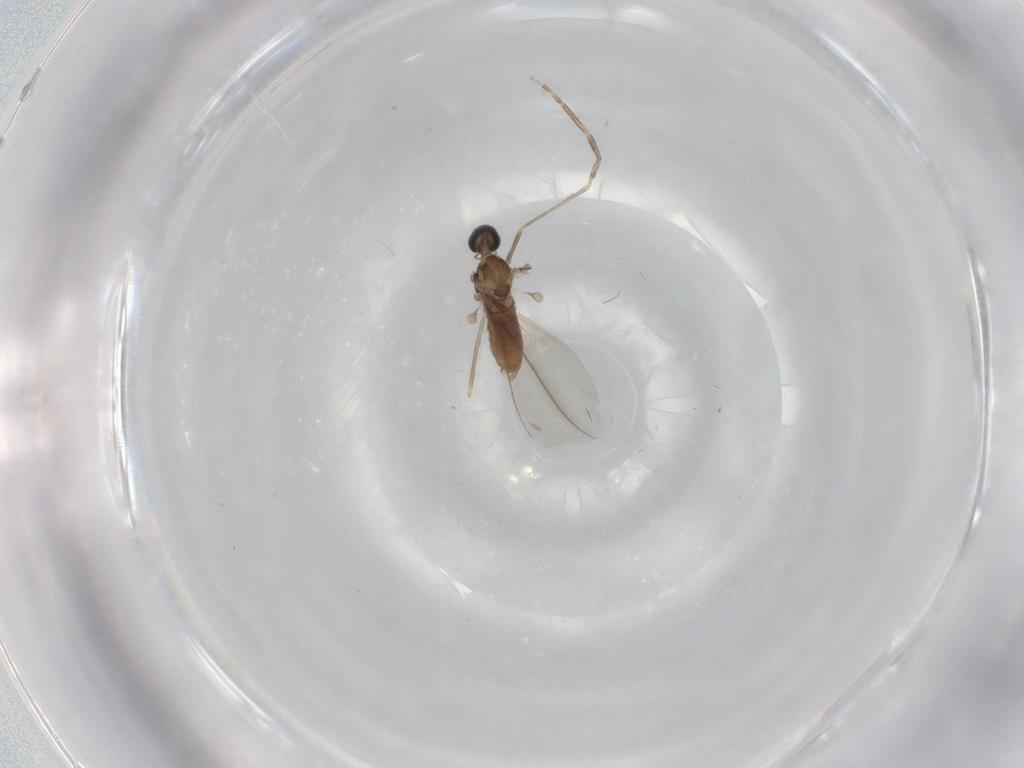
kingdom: Animalia
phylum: Arthropoda
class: Insecta
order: Diptera
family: Cecidomyiidae
